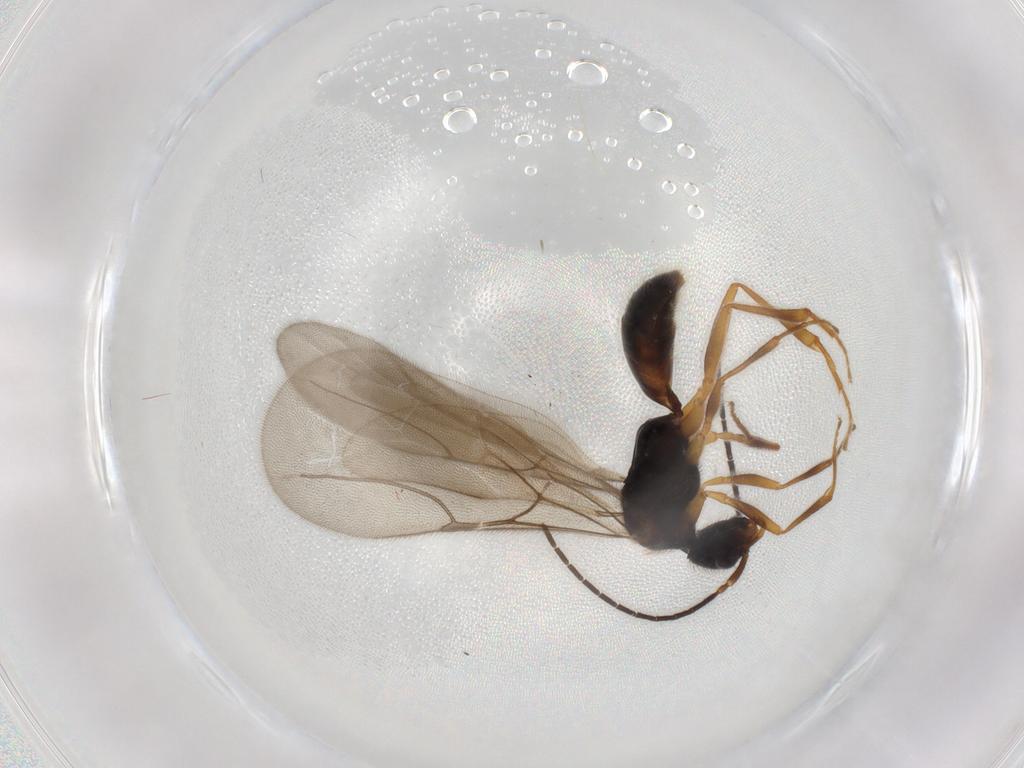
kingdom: Animalia
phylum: Arthropoda
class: Insecta
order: Hymenoptera
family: Bethylidae
